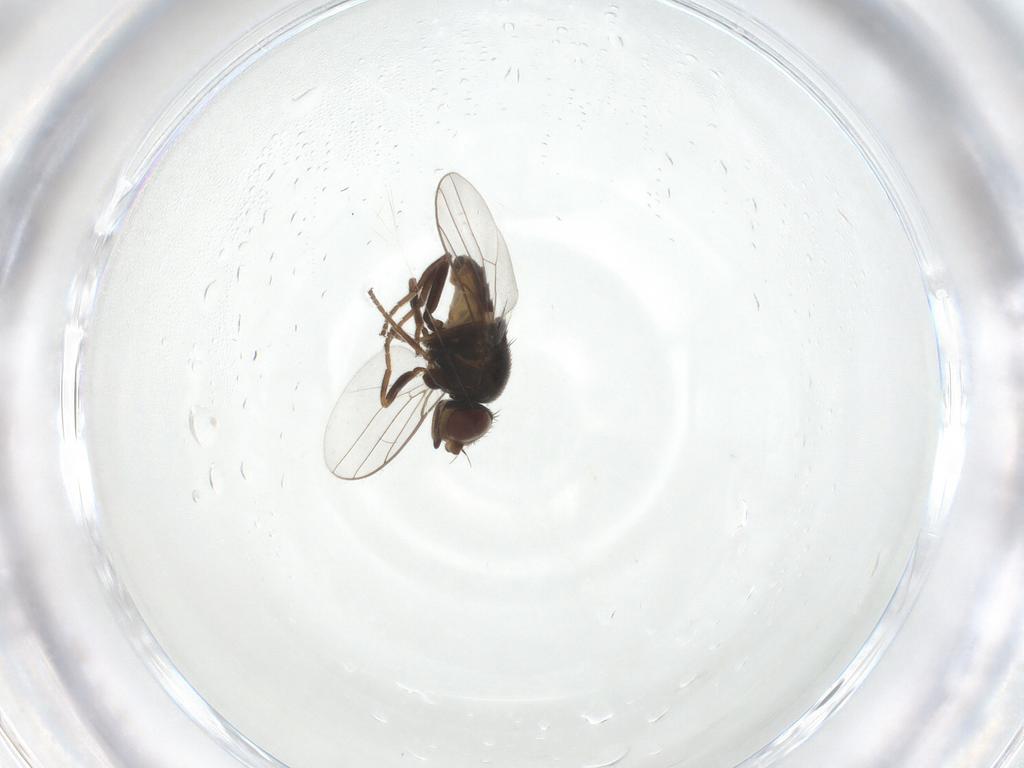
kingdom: Animalia
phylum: Arthropoda
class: Insecta
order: Diptera
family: Chloropidae
